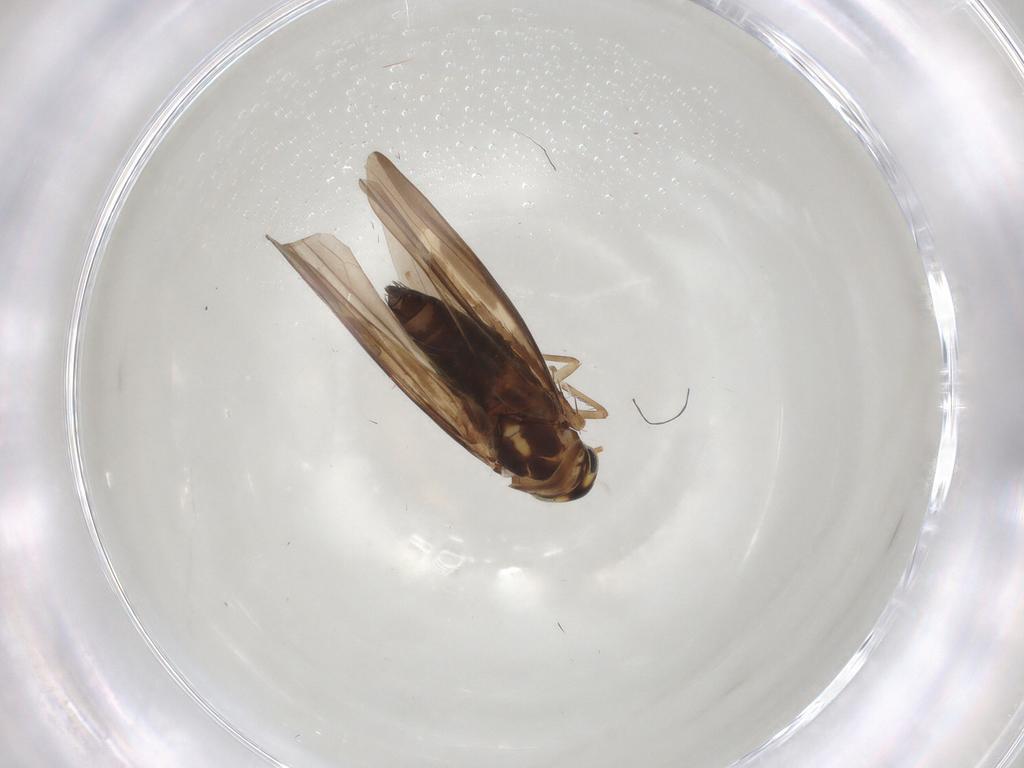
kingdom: Animalia
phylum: Arthropoda
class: Insecta
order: Hemiptera
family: Cicadellidae
